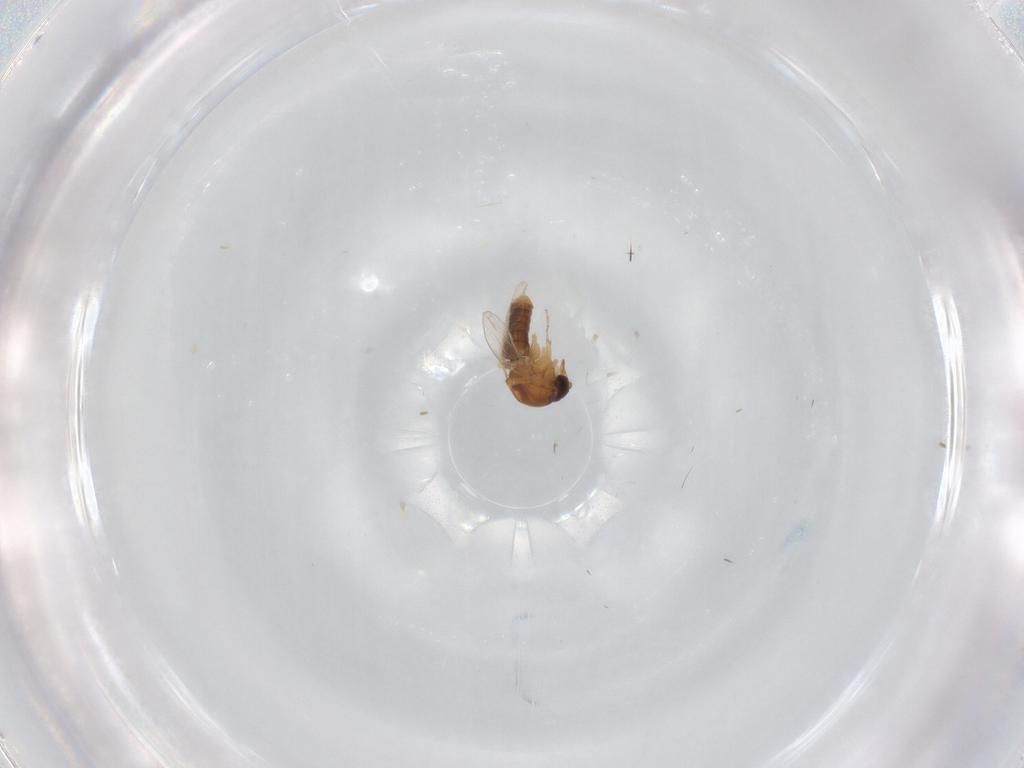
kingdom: Animalia
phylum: Arthropoda
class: Insecta
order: Diptera
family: Ceratopogonidae
